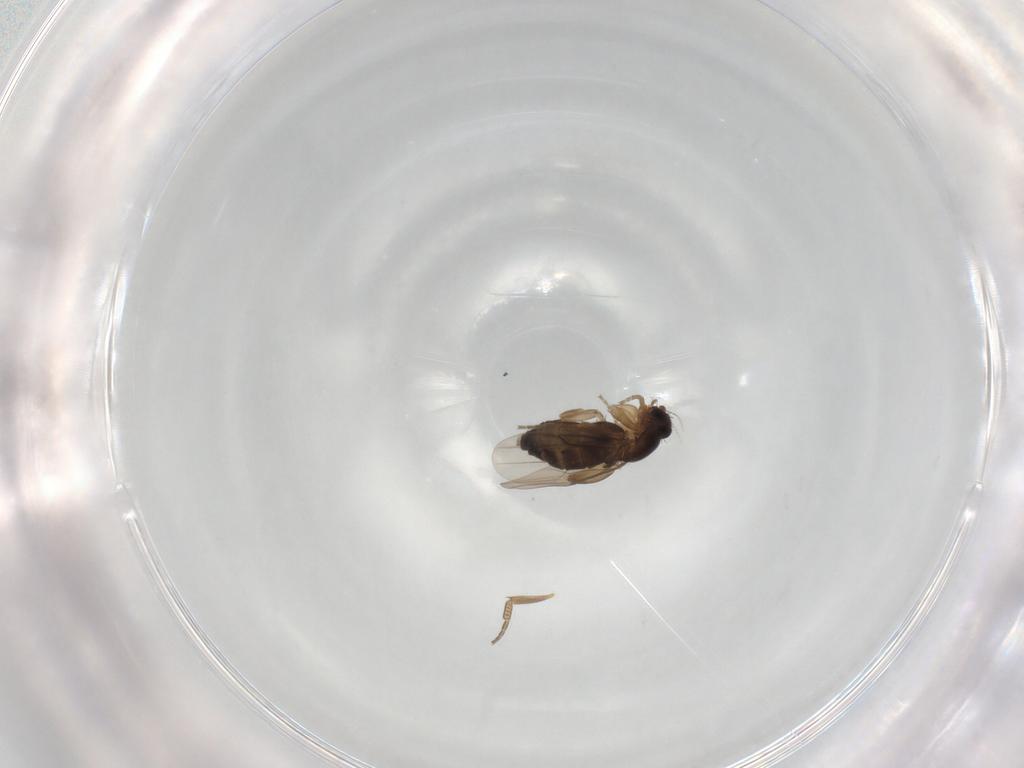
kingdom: Animalia
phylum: Arthropoda
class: Insecta
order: Diptera
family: Phoridae
